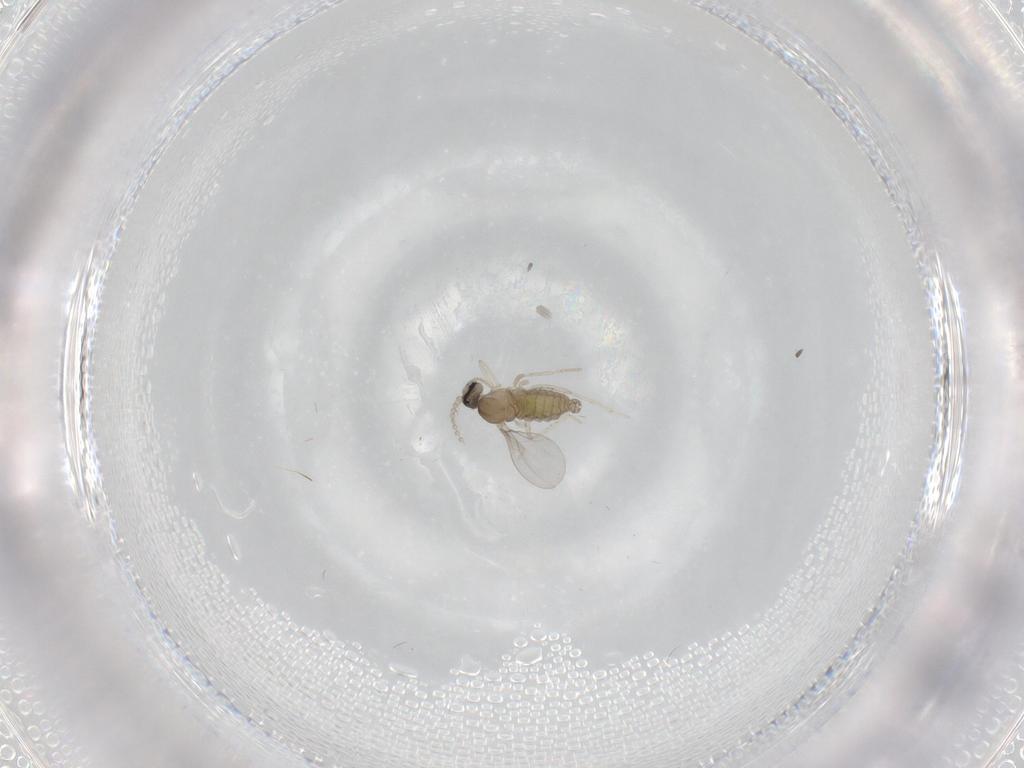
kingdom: Animalia
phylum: Arthropoda
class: Insecta
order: Diptera
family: Cecidomyiidae
